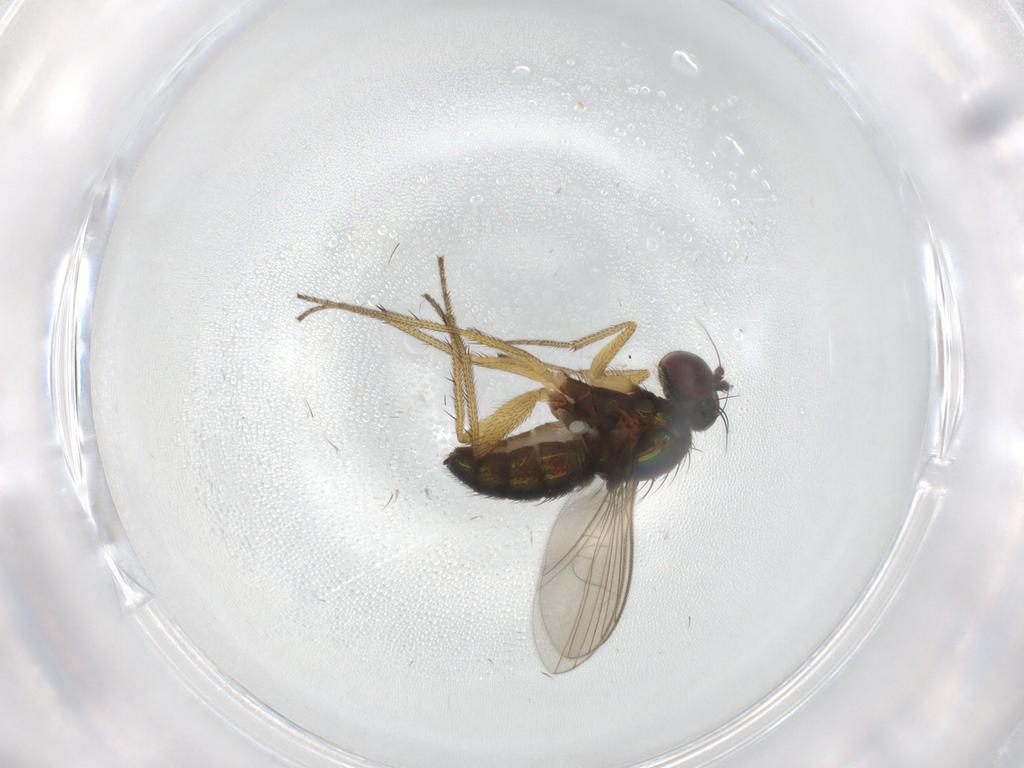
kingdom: Animalia
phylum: Arthropoda
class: Insecta
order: Diptera
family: Dolichopodidae
